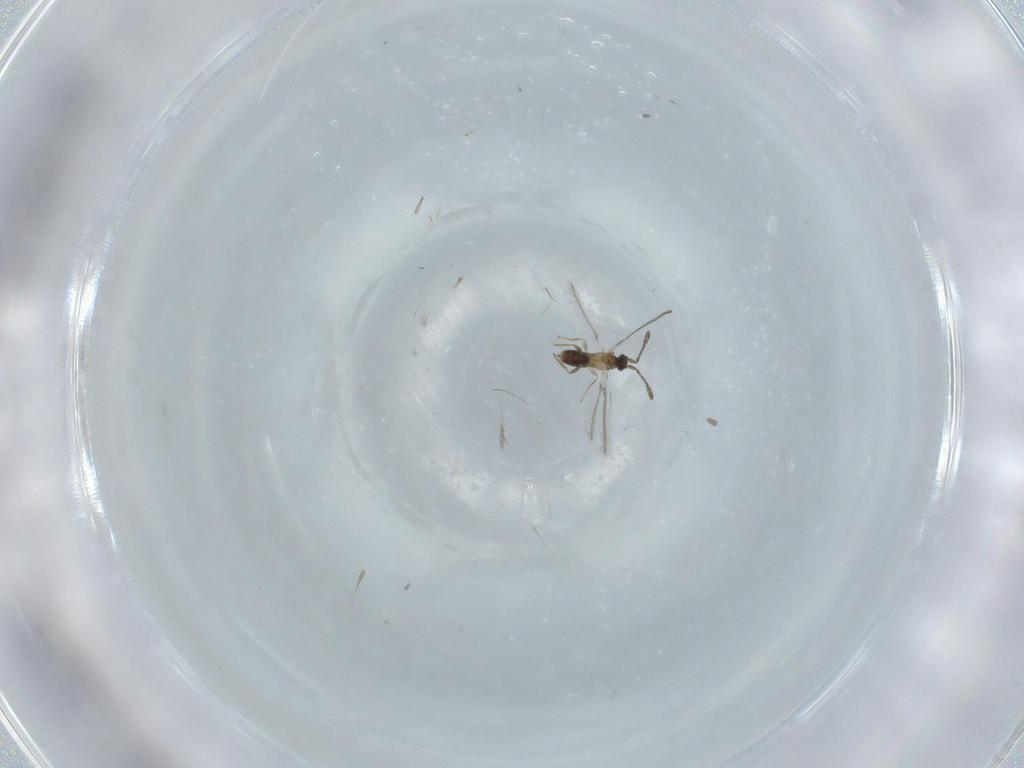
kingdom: Animalia
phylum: Arthropoda
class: Insecta
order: Hymenoptera
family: Mymaridae
